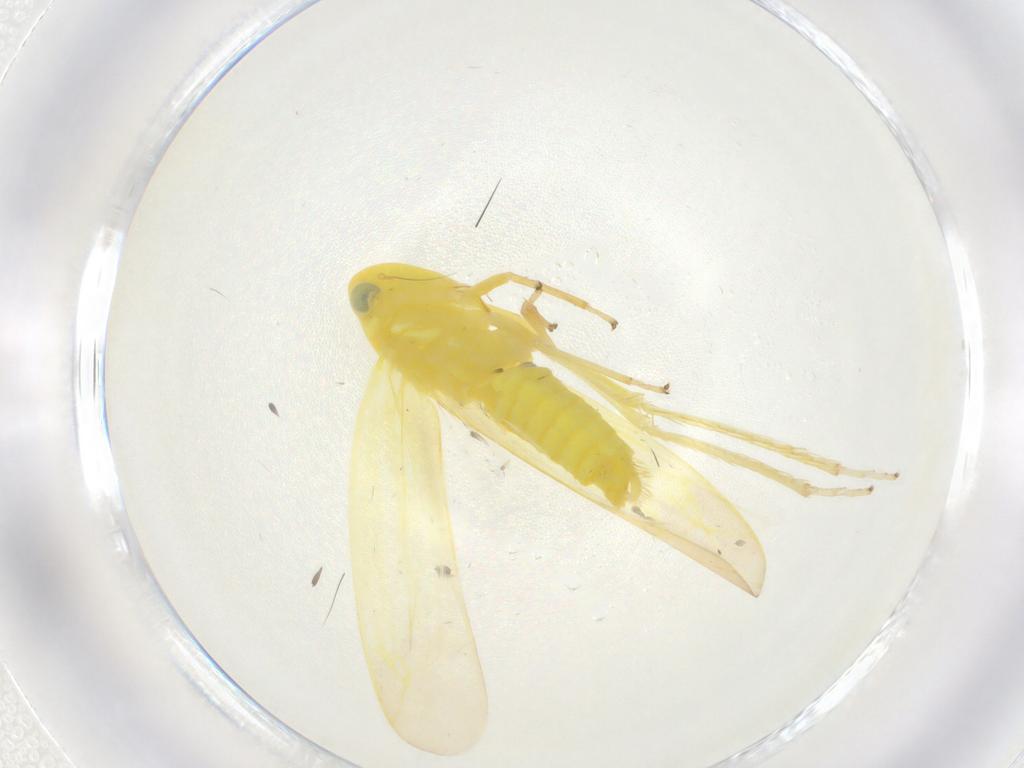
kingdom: Animalia
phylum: Arthropoda
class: Insecta
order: Hemiptera
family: Cicadellidae
